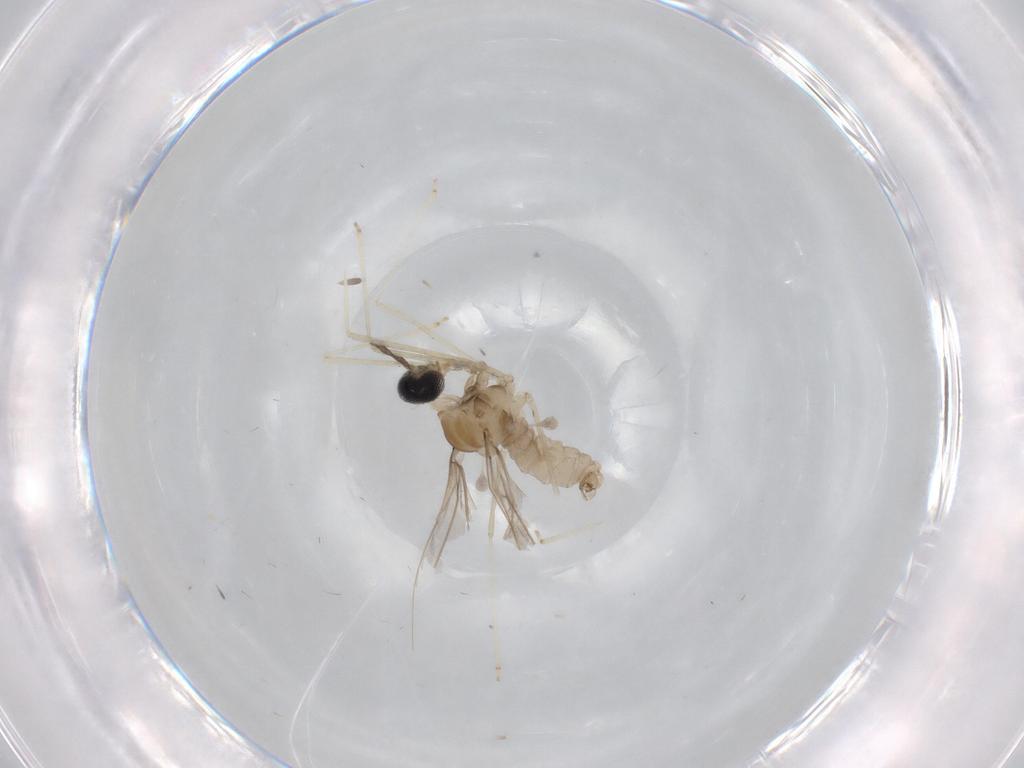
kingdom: Animalia
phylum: Arthropoda
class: Insecta
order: Diptera
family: Cecidomyiidae
